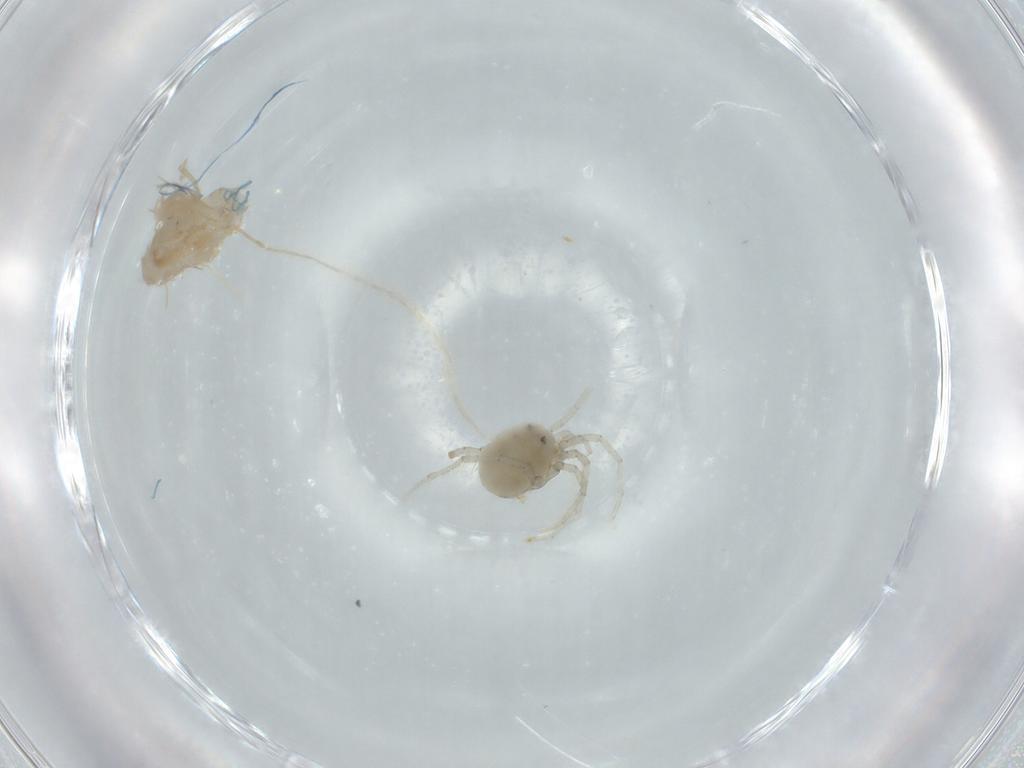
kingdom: Animalia
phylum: Arthropoda
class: Arachnida
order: Trombidiformes
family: Pionidae
